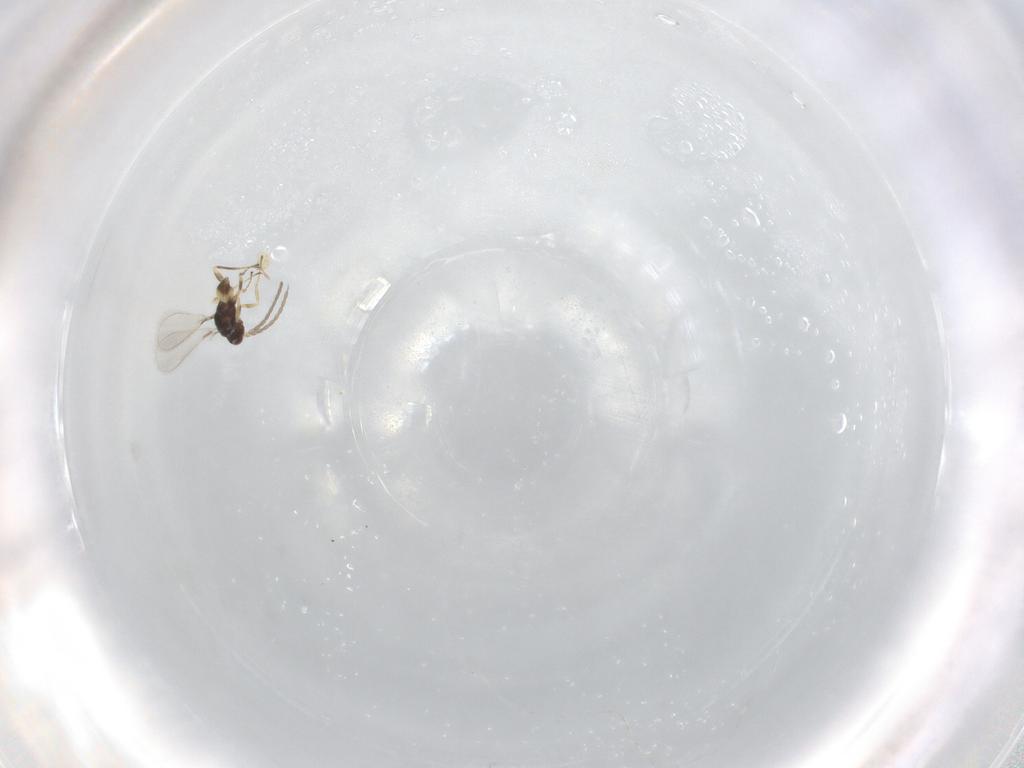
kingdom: Animalia
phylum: Arthropoda
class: Insecta
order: Hymenoptera
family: Mymaridae
